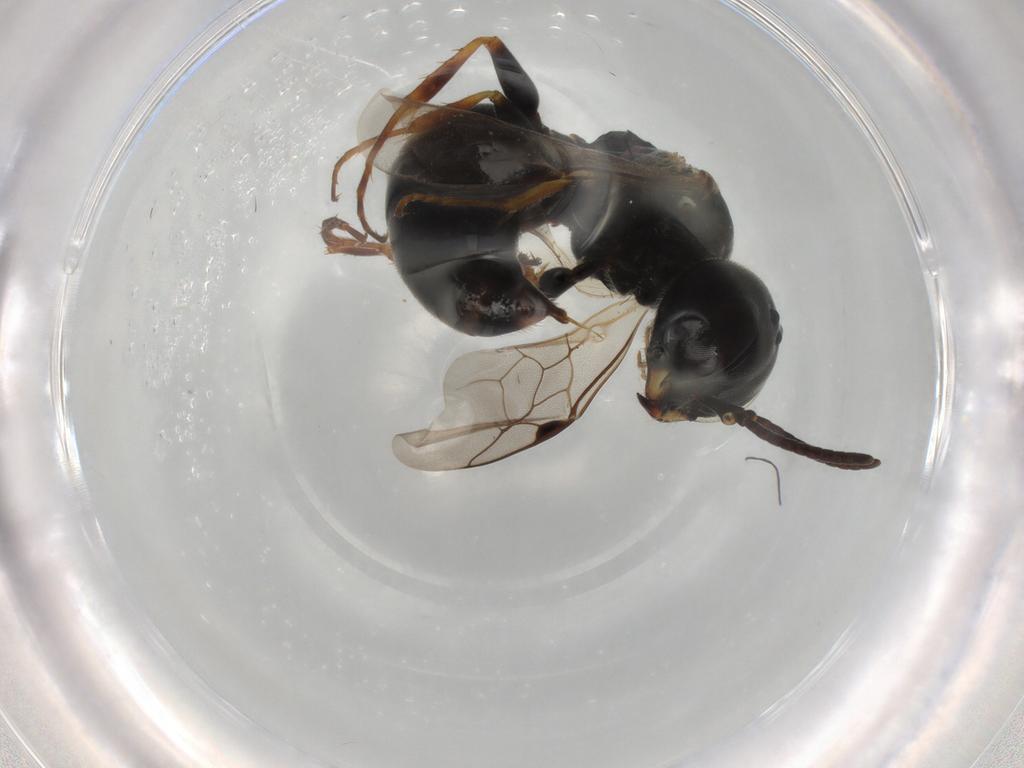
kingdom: Animalia
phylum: Arthropoda
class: Insecta
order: Hymenoptera
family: Crabronidae
